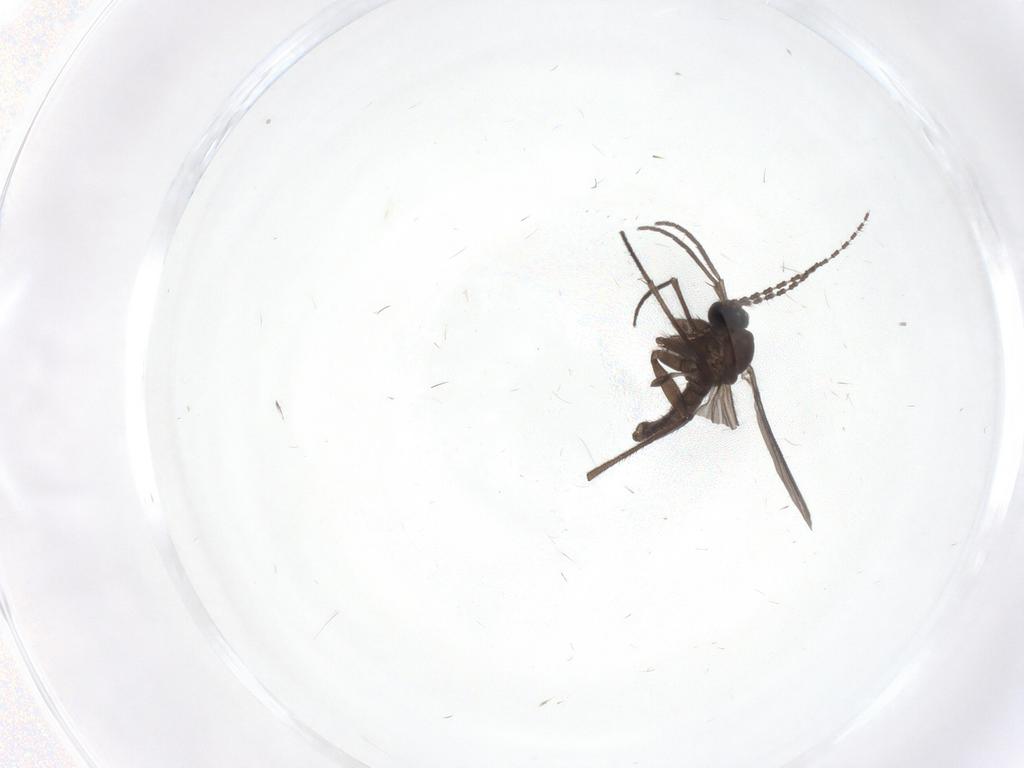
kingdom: Animalia
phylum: Arthropoda
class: Insecta
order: Diptera
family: Sciaridae
